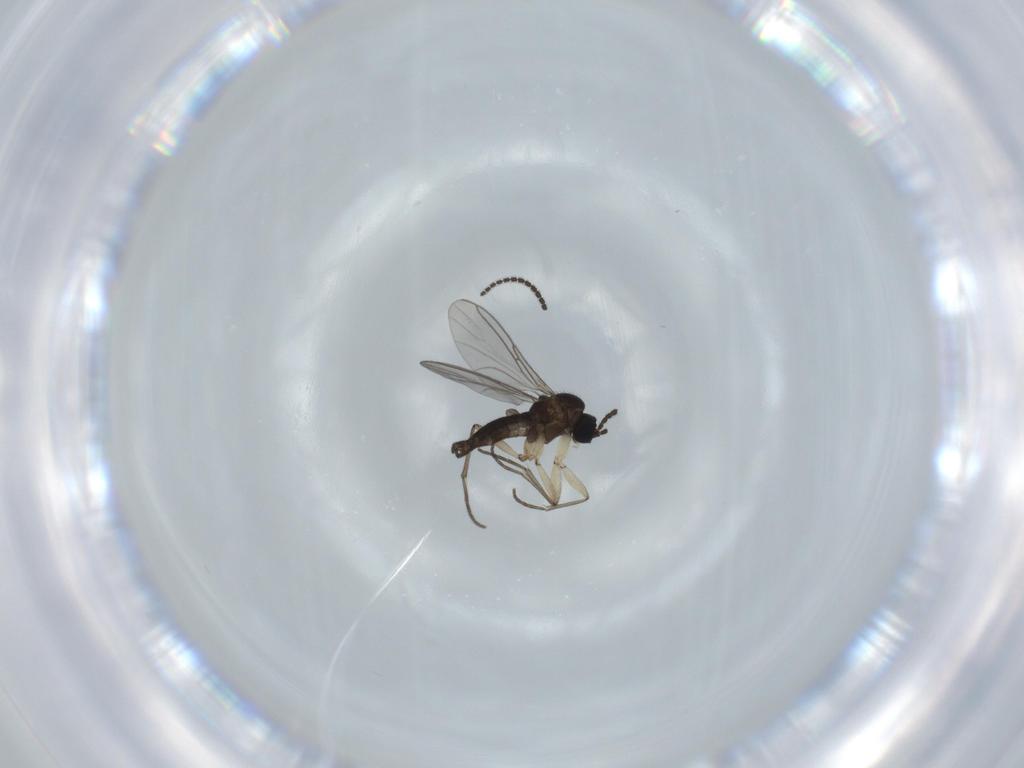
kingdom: Animalia
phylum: Arthropoda
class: Insecta
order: Diptera
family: Sciaridae
